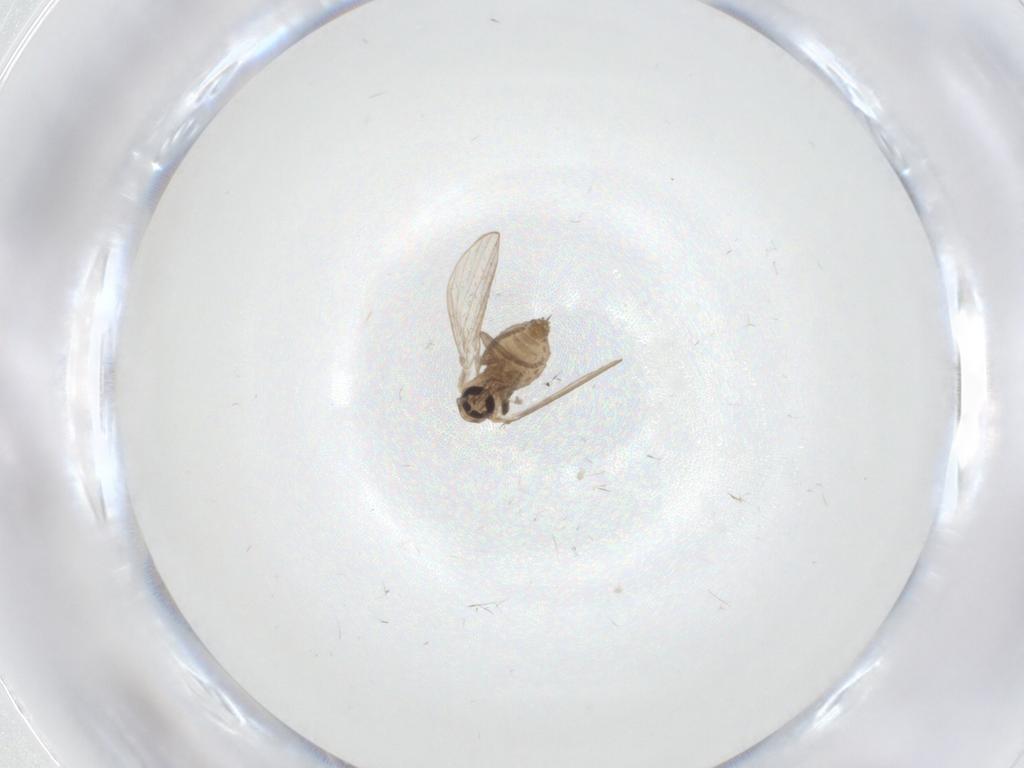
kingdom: Animalia
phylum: Arthropoda
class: Insecta
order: Diptera
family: Psychodidae
